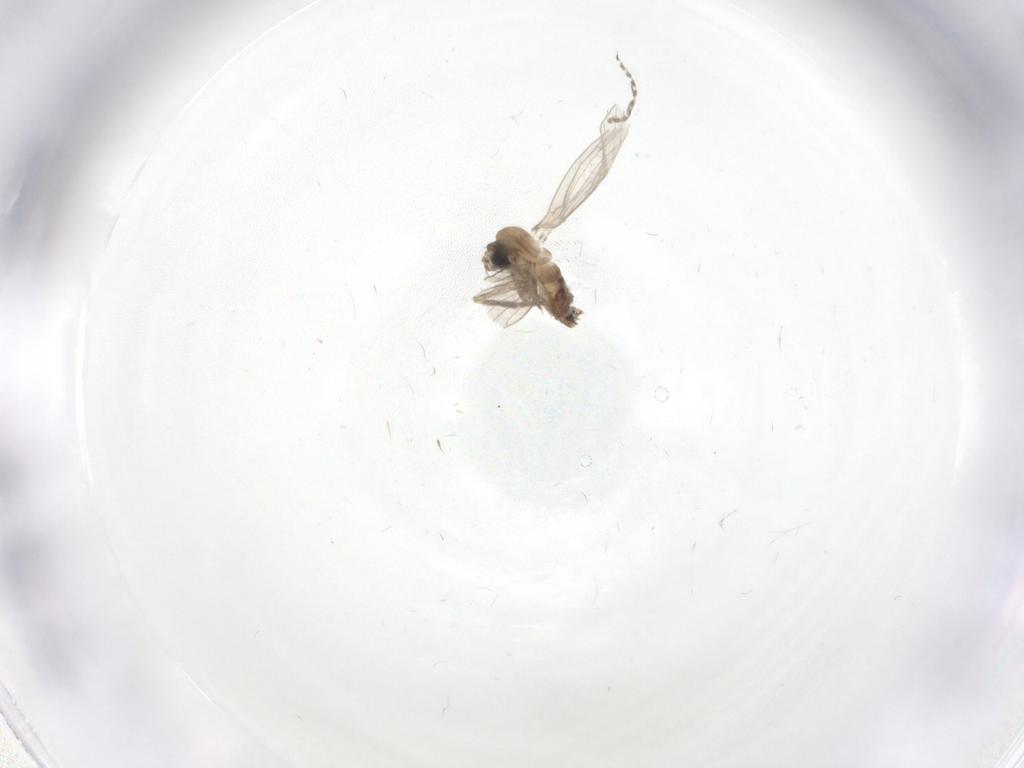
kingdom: Animalia
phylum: Arthropoda
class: Insecta
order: Diptera
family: Psychodidae
